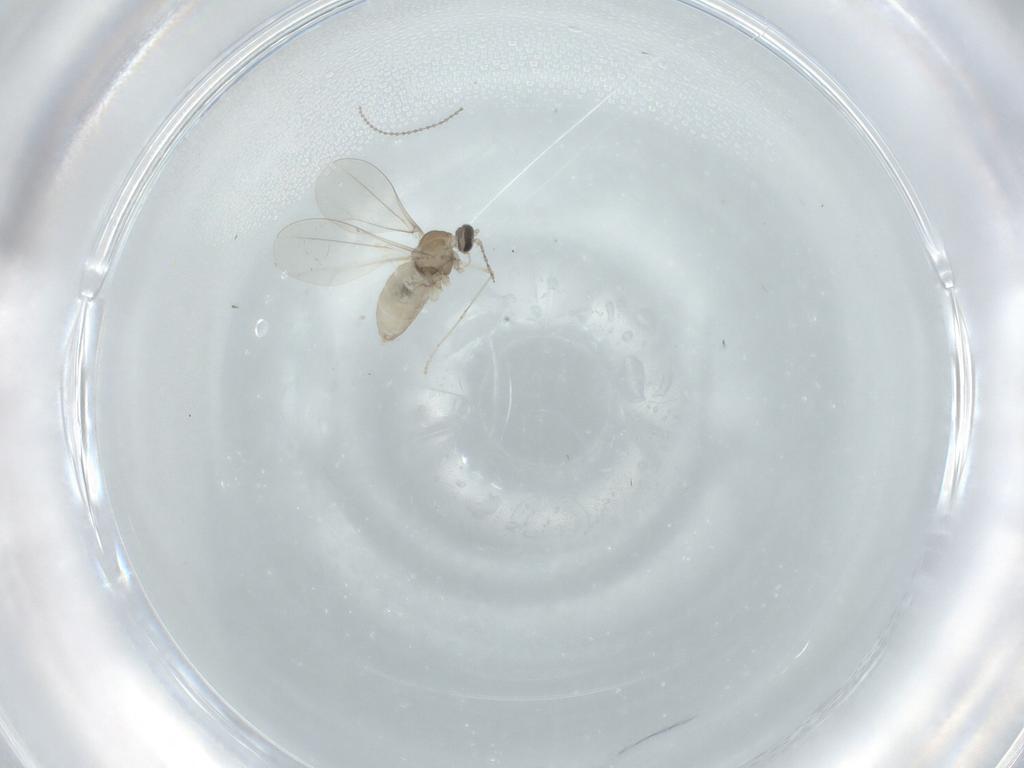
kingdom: Animalia
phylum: Arthropoda
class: Insecta
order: Diptera
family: Cecidomyiidae
